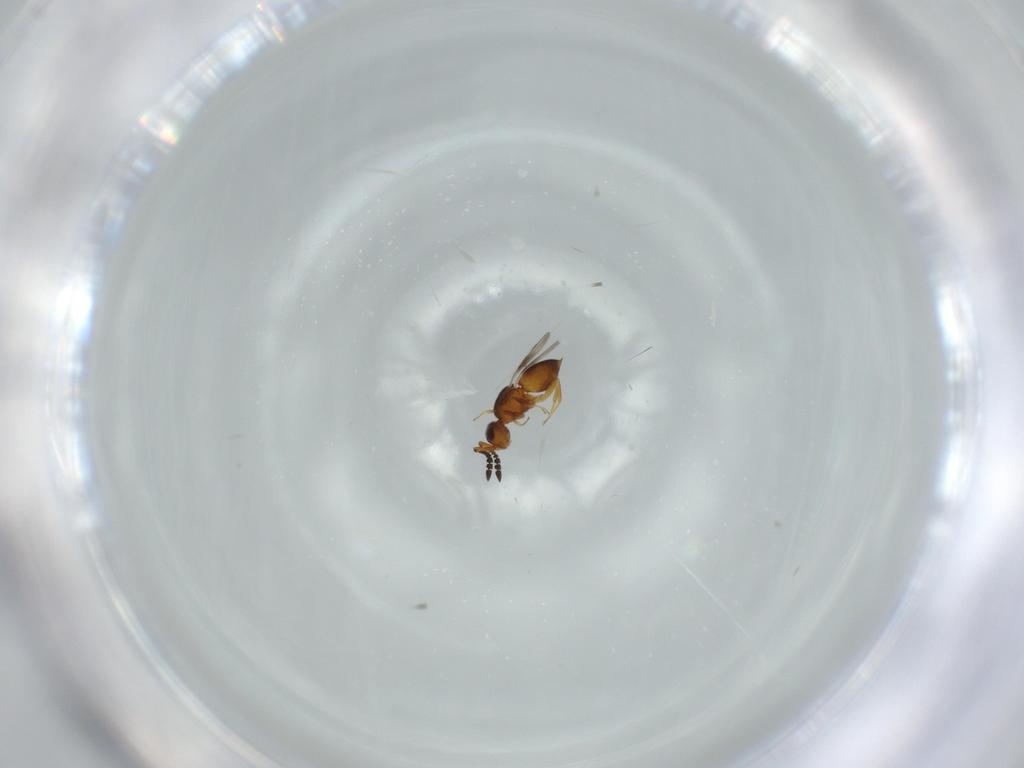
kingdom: Animalia
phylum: Arthropoda
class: Insecta
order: Hymenoptera
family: Ceraphronidae
